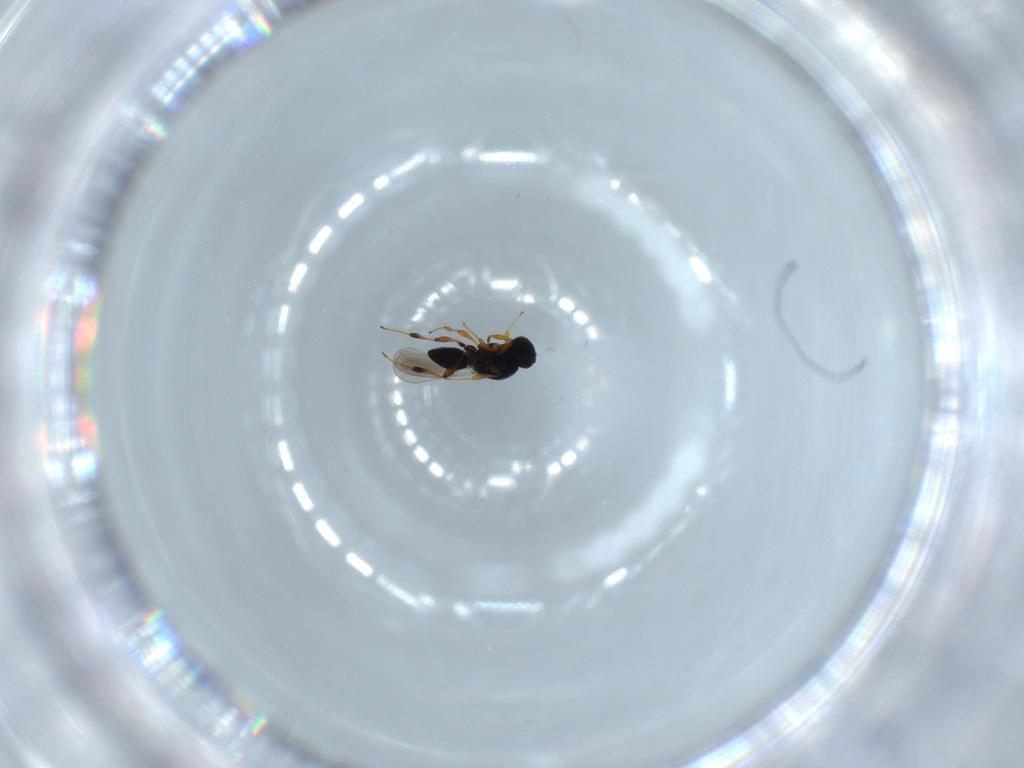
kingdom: Animalia
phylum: Arthropoda
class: Insecta
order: Hymenoptera
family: Platygastridae
